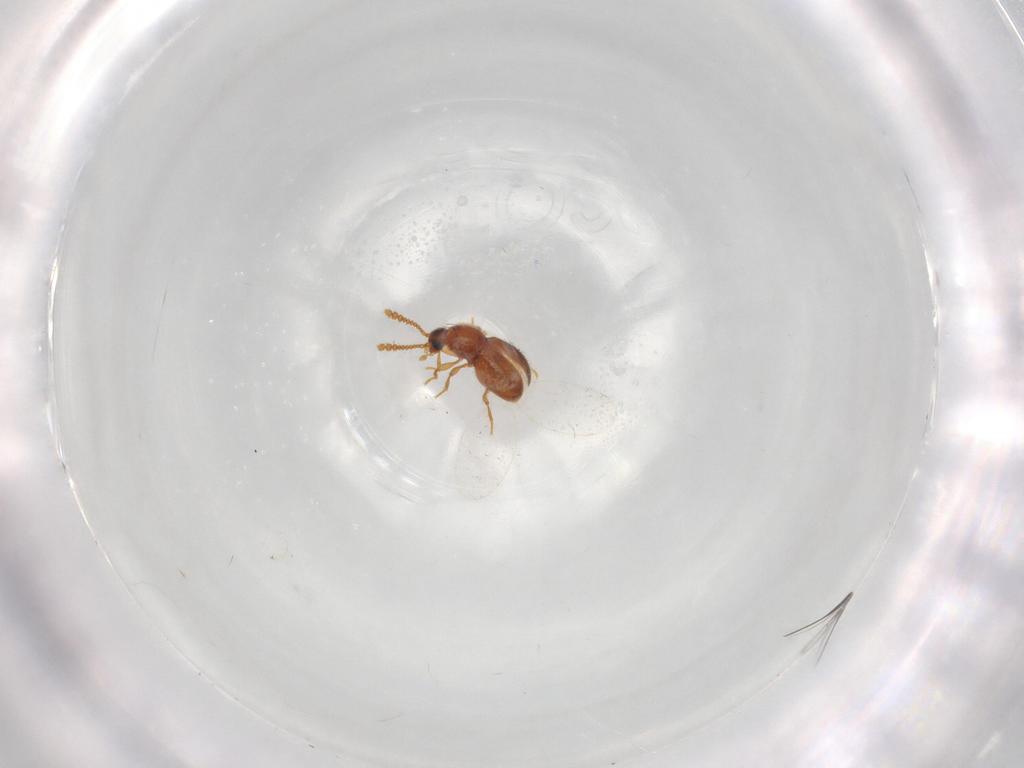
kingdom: Animalia
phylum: Arthropoda
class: Insecta
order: Coleoptera
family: Staphylinidae
